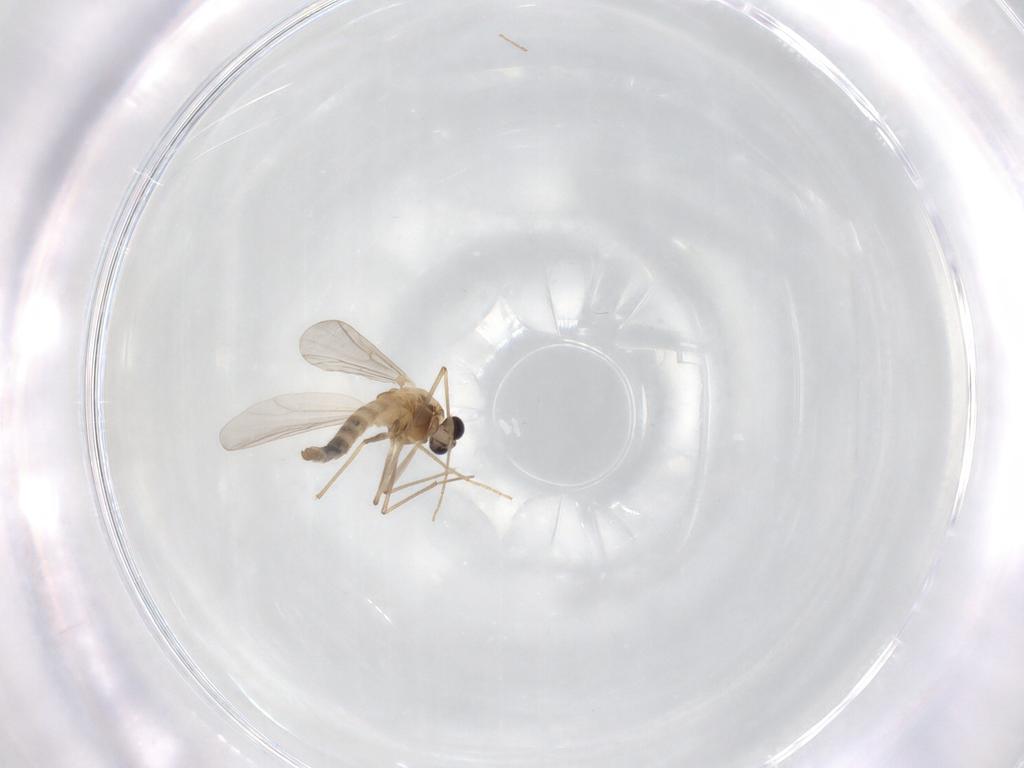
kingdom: Animalia
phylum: Arthropoda
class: Insecta
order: Diptera
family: Chironomidae
